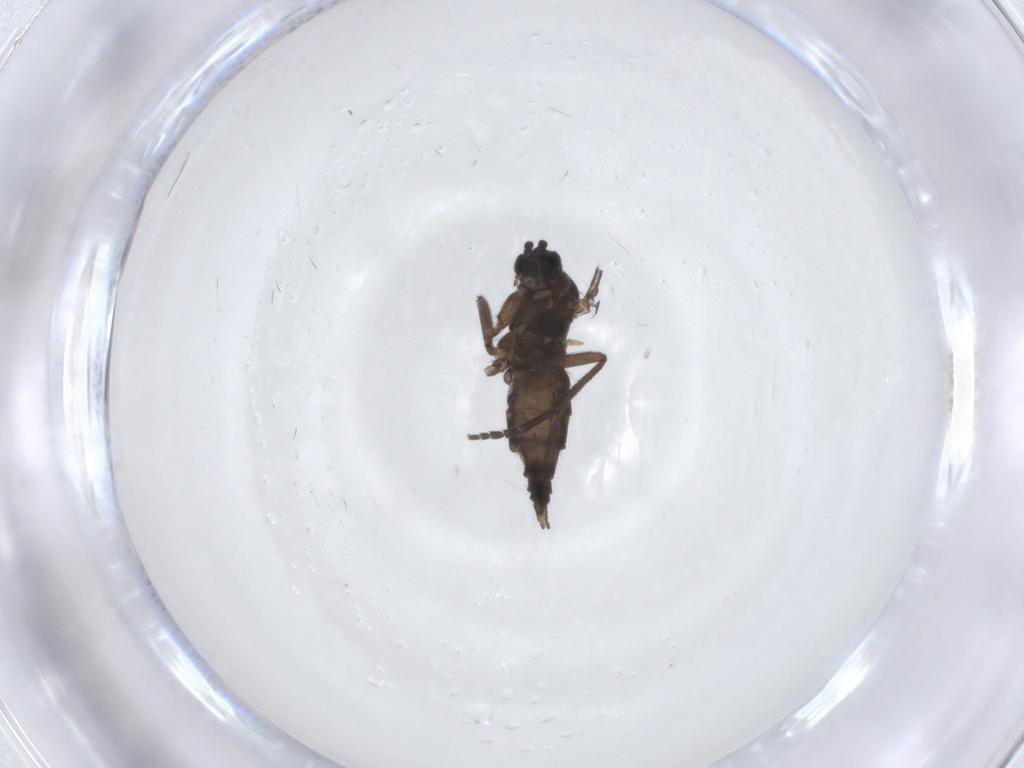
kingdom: Animalia
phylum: Arthropoda
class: Insecta
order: Diptera
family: Sciaridae
